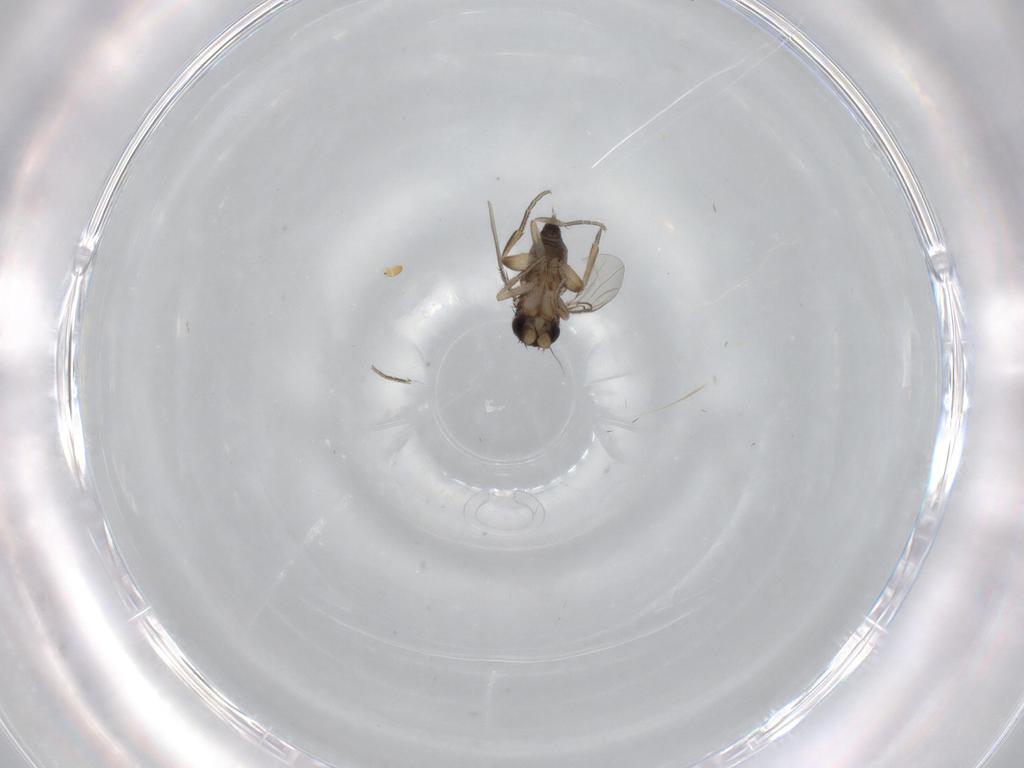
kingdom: Animalia
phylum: Arthropoda
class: Insecta
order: Diptera
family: Phoridae
